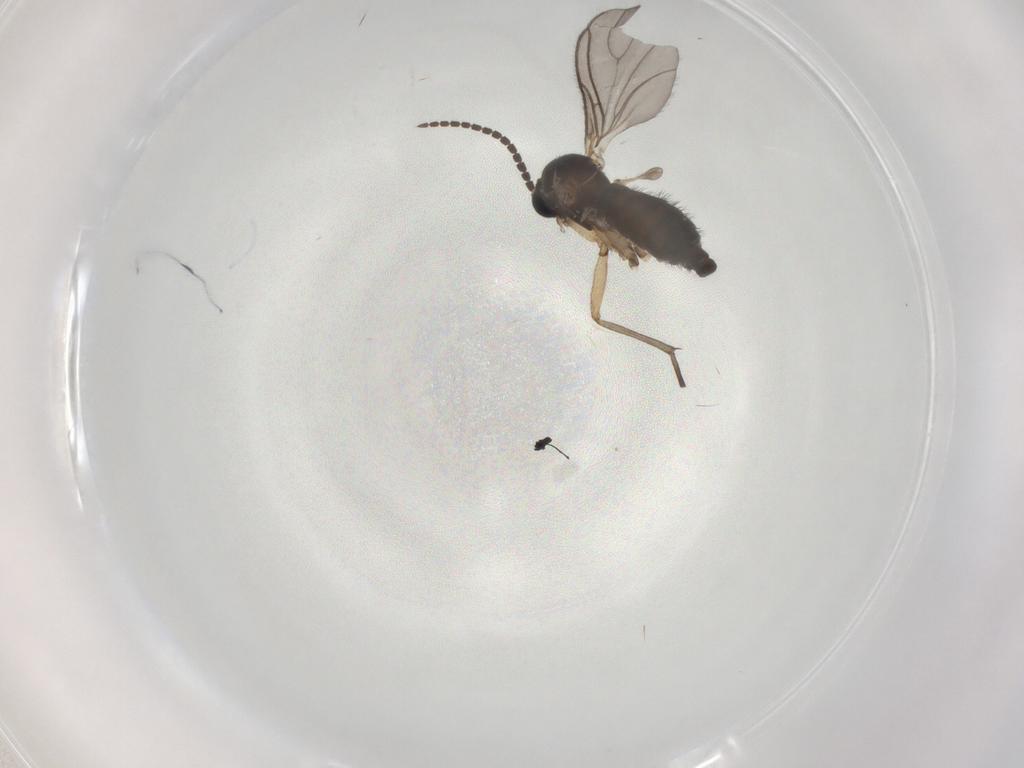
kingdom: Animalia
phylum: Arthropoda
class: Insecta
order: Diptera
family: Sciaridae
